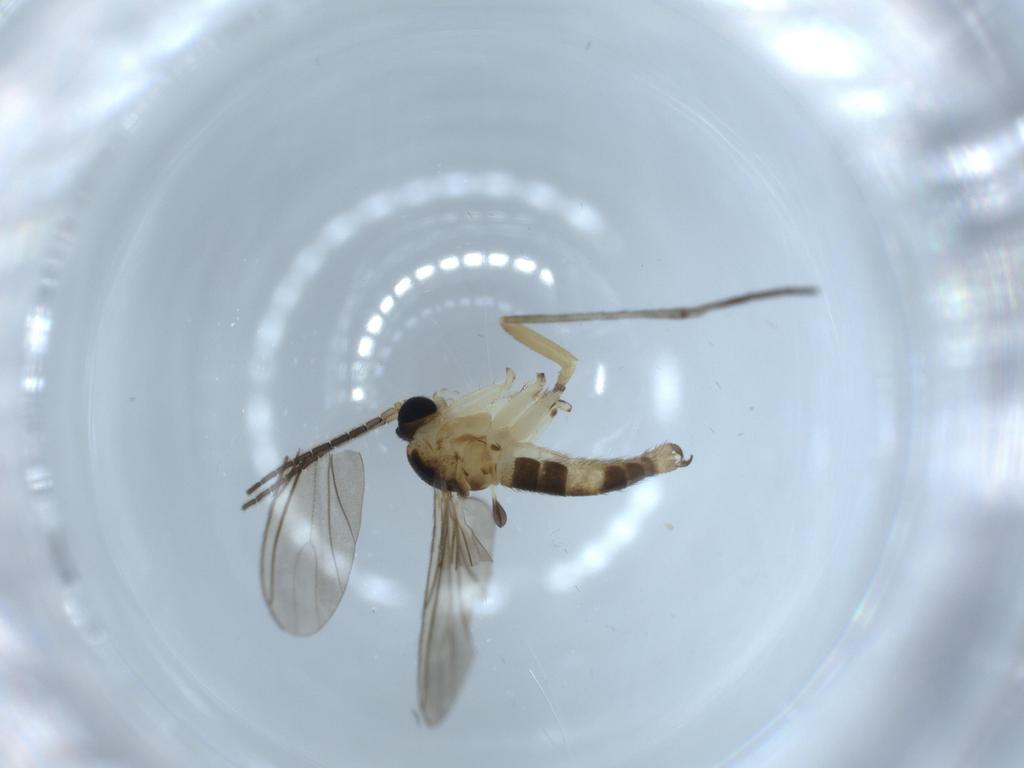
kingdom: Animalia
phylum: Arthropoda
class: Insecta
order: Diptera
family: Sciaridae
